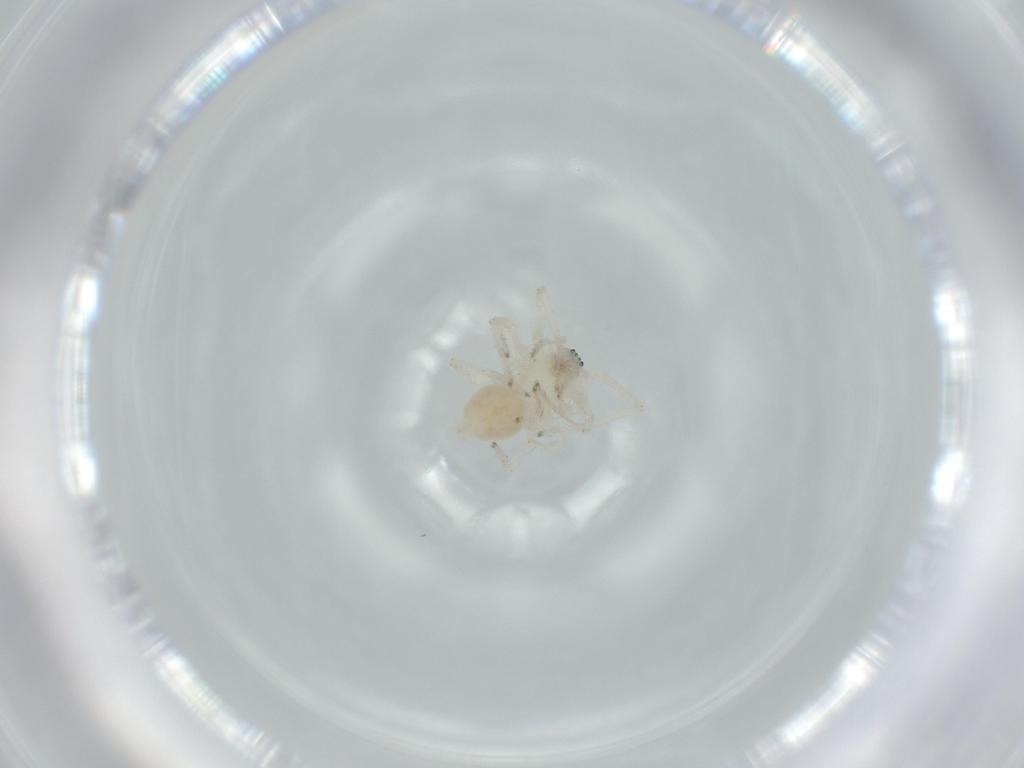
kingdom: Animalia
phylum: Arthropoda
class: Arachnida
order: Araneae
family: Anyphaenidae
